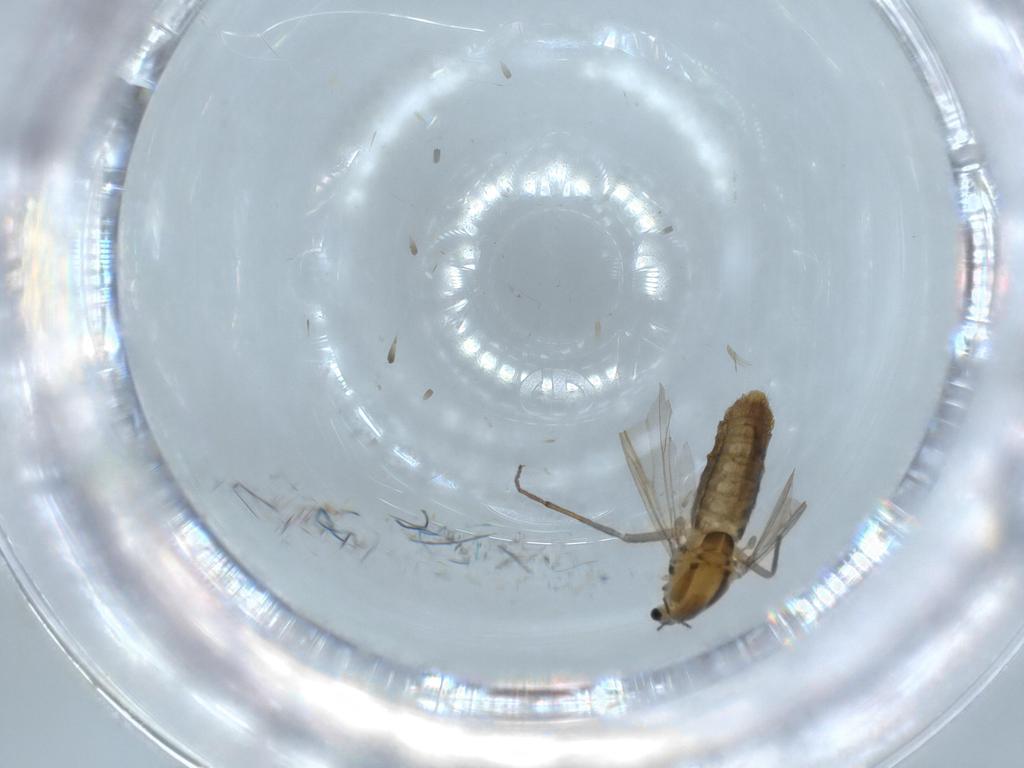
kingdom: Animalia
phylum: Arthropoda
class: Insecta
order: Diptera
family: Chironomidae
